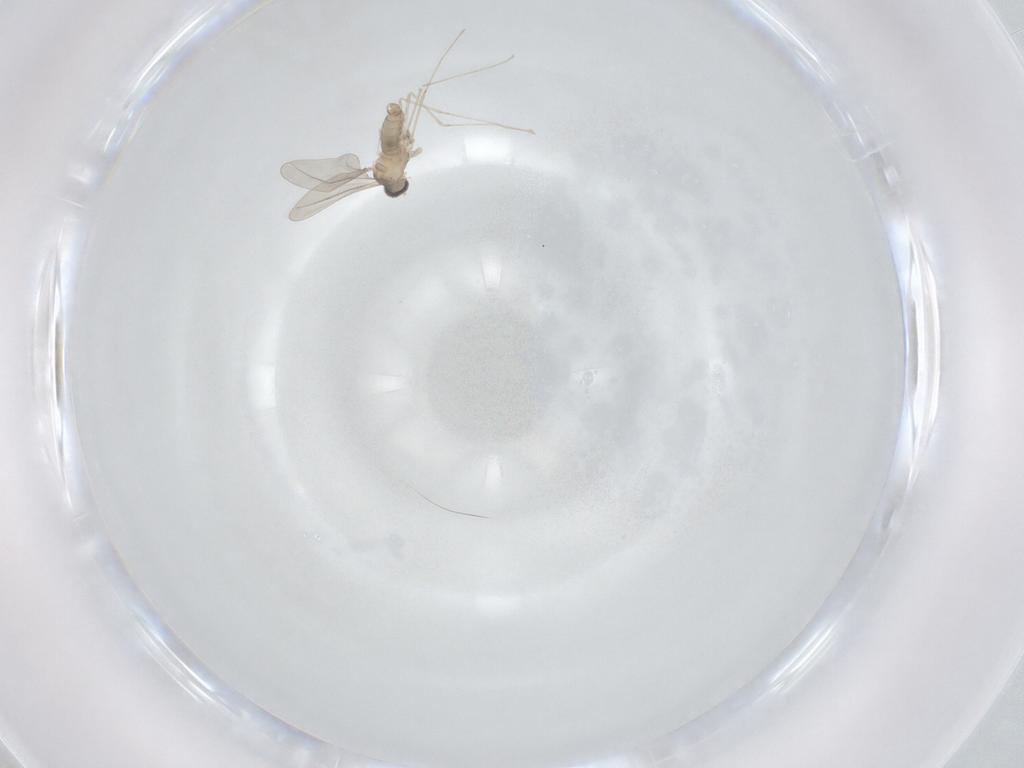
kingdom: Animalia
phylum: Arthropoda
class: Insecta
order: Diptera
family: Cecidomyiidae
